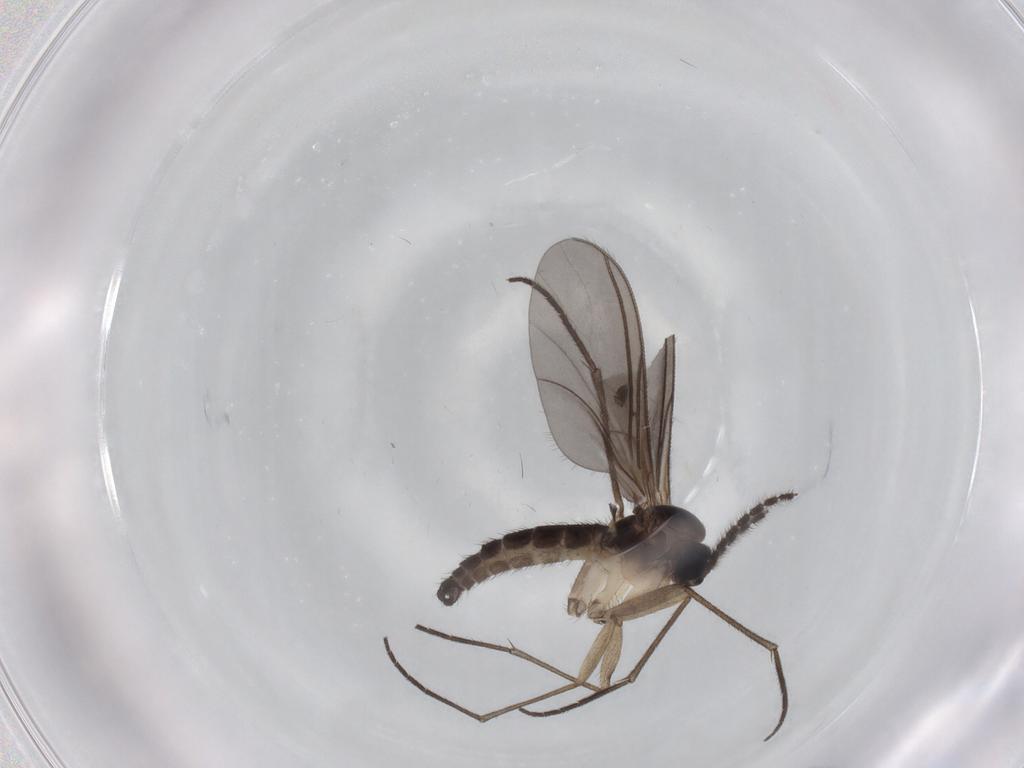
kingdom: Animalia
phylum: Arthropoda
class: Insecta
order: Diptera
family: Sciaridae
